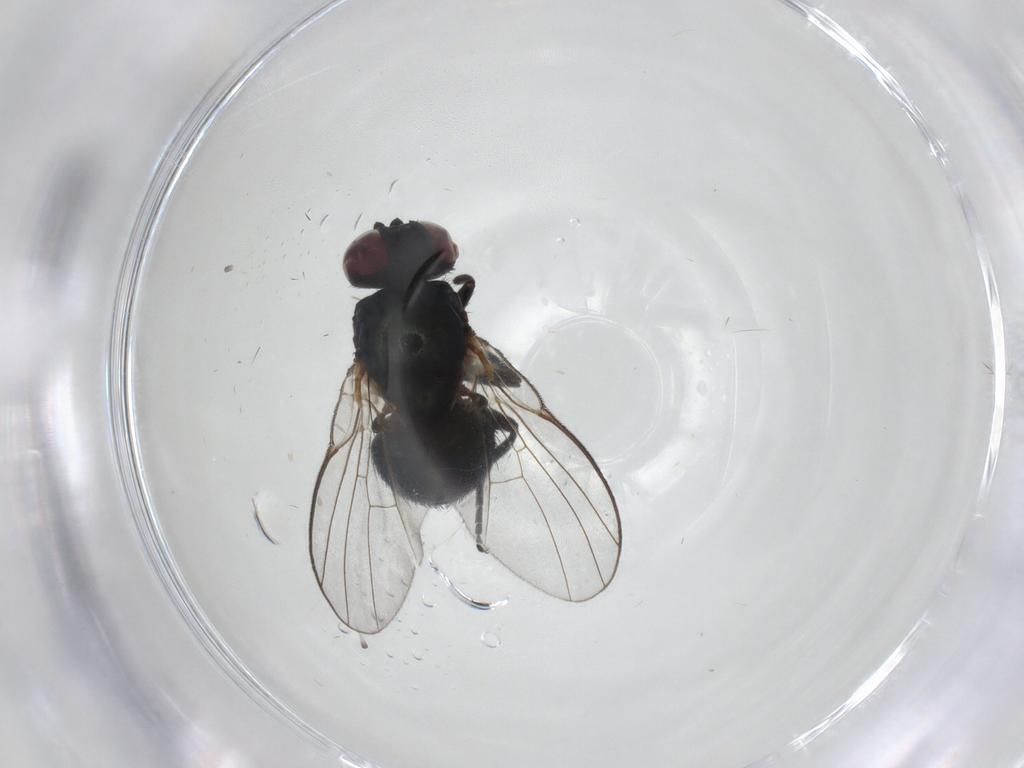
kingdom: Animalia
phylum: Arthropoda
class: Insecta
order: Diptera
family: Agromyzidae
